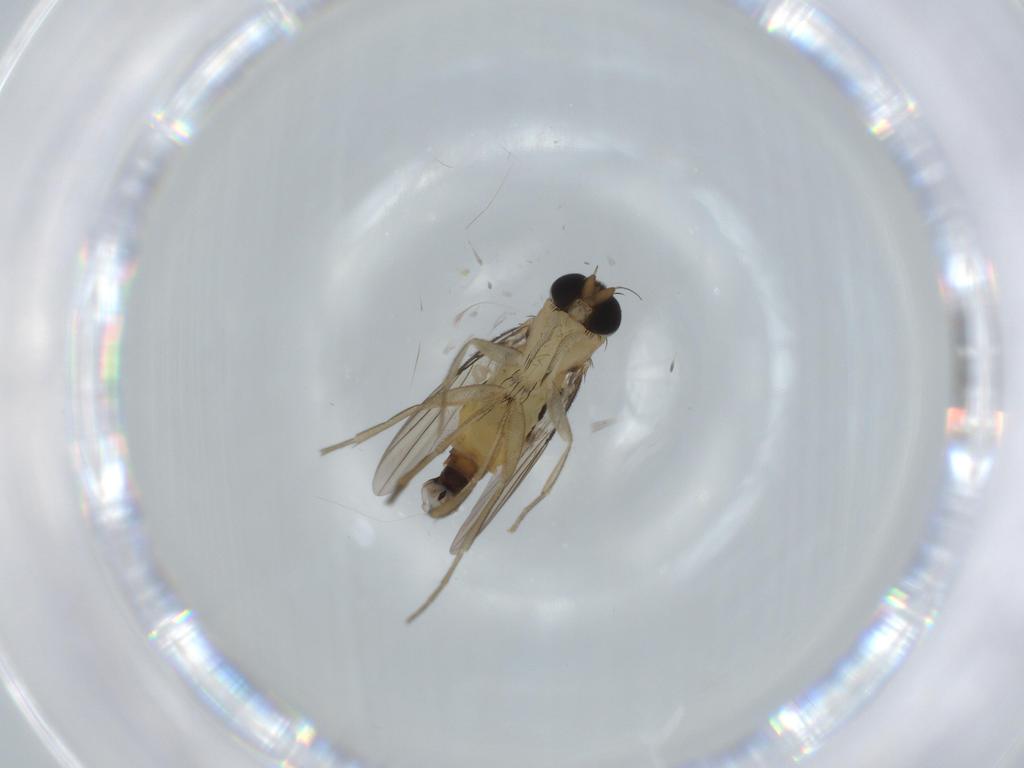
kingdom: Animalia
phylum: Arthropoda
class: Insecta
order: Diptera
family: Phoridae
